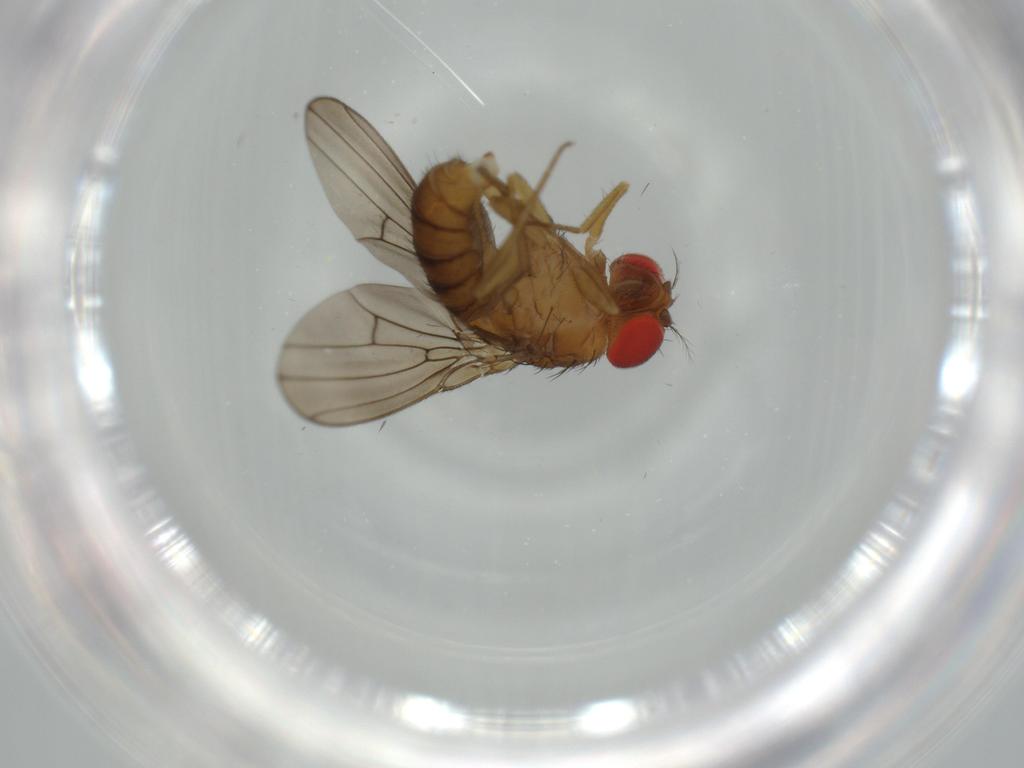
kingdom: Animalia
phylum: Arthropoda
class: Insecta
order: Diptera
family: Drosophilidae
